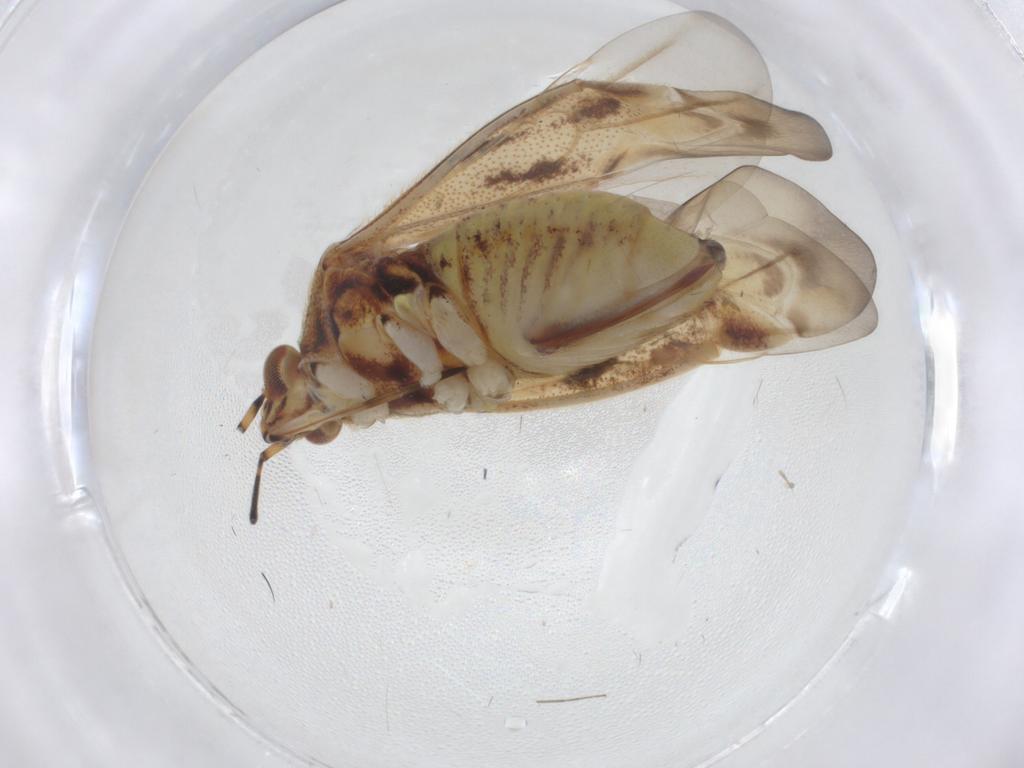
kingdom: Animalia
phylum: Arthropoda
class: Insecta
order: Hemiptera
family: Miridae
